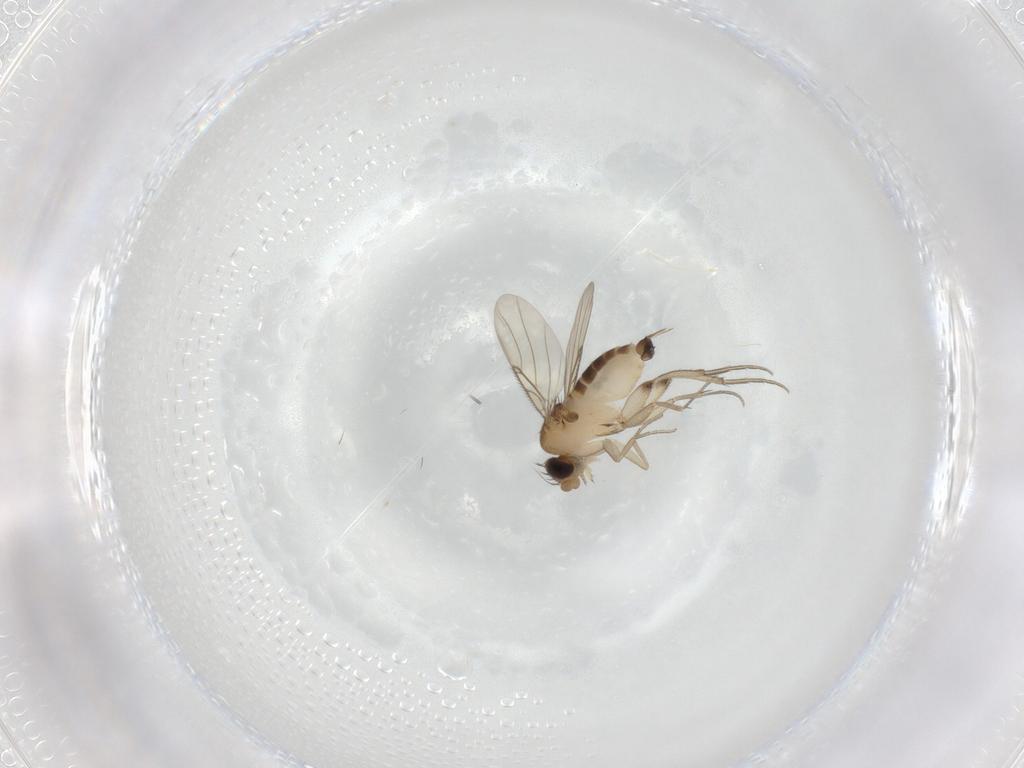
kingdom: Animalia
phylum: Arthropoda
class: Insecta
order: Diptera
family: Phoridae
